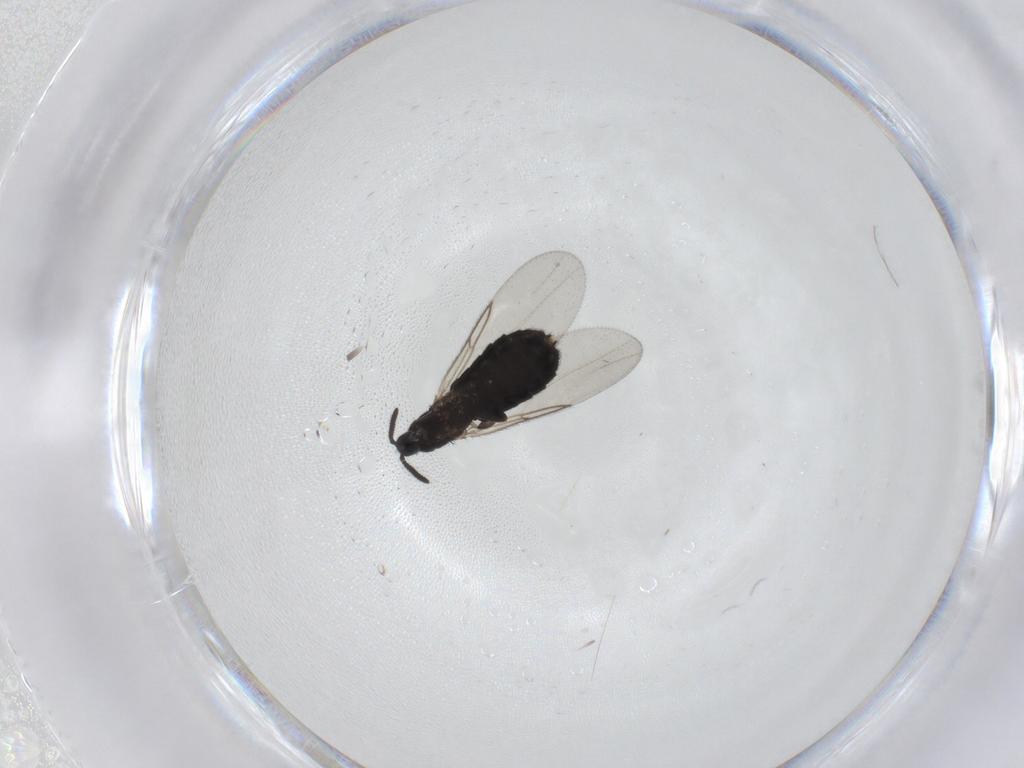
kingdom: Animalia
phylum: Arthropoda
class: Insecta
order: Diptera
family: Scatopsidae
